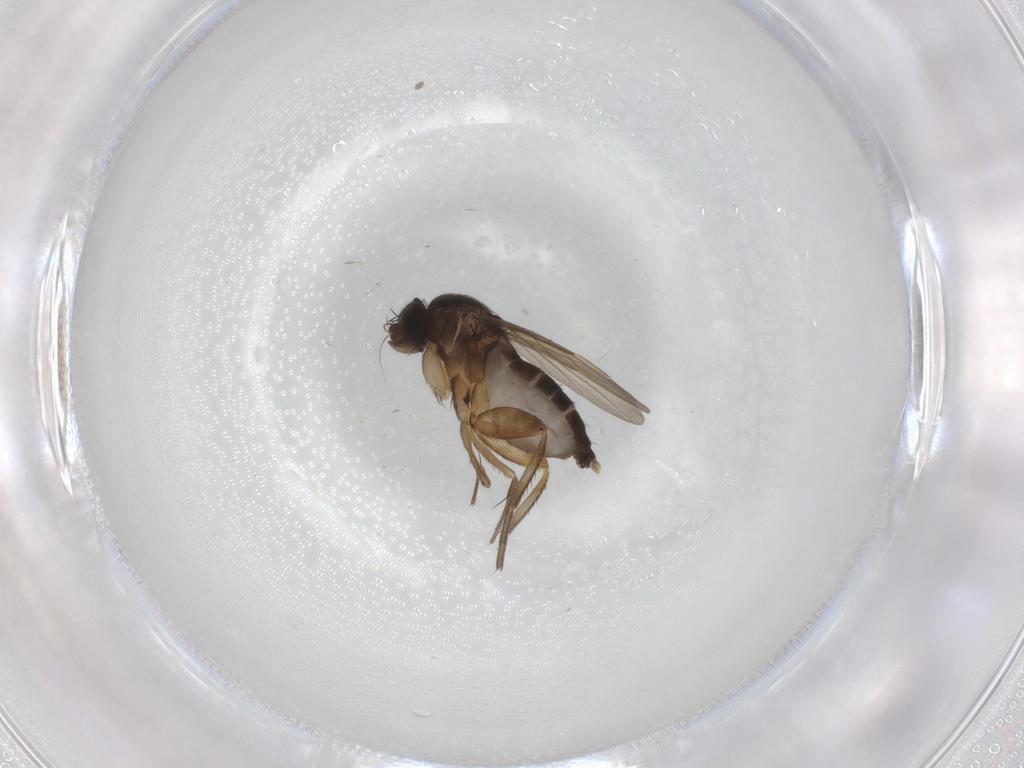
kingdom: Animalia
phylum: Arthropoda
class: Insecta
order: Diptera
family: Phoridae
